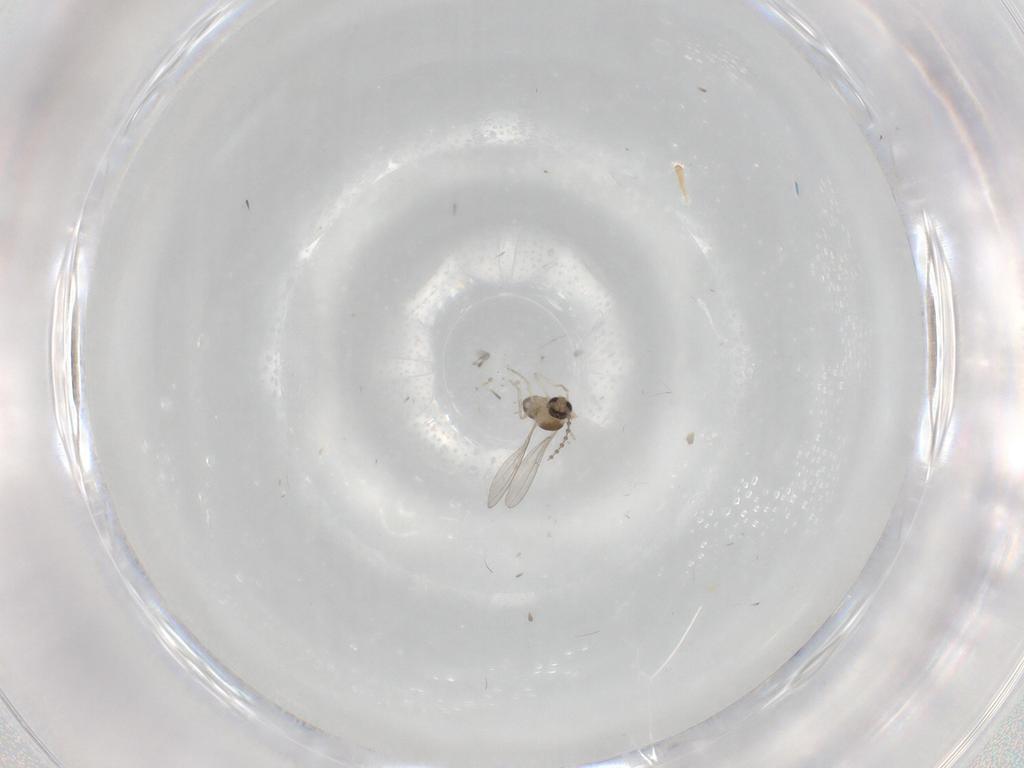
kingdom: Animalia
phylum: Arthropoda
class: Insecta
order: Diptera
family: Cecidomyiidae
